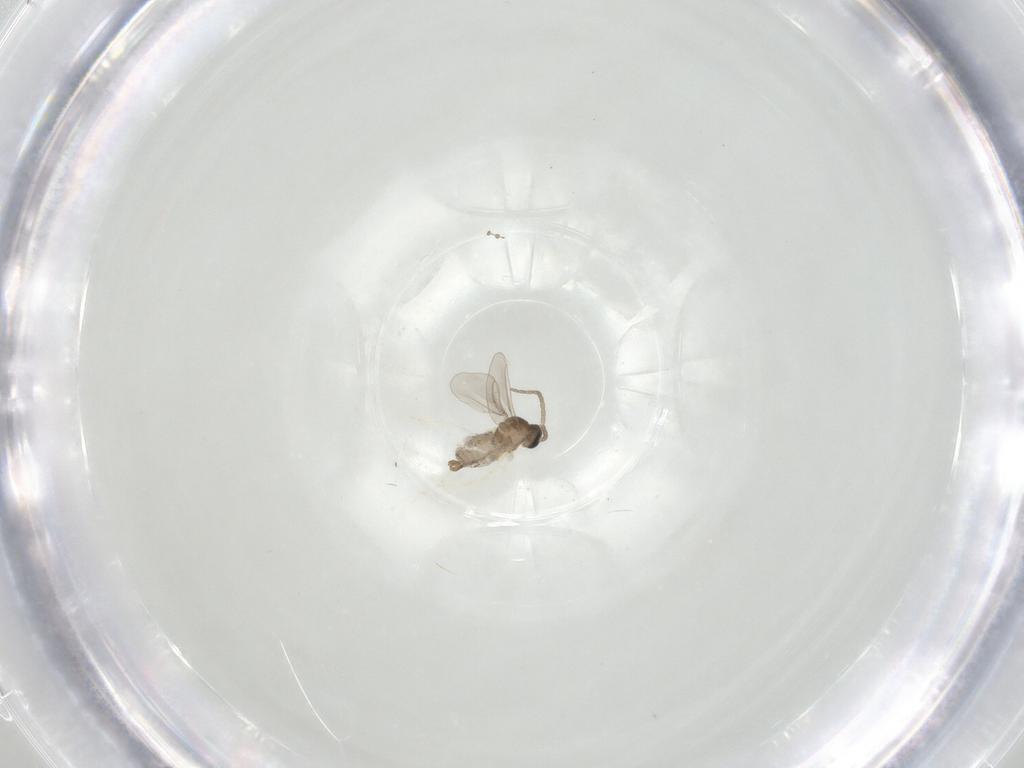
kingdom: Animalia
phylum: Arthropoda
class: Insecta
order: Diptera
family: Cecidomyiidae
